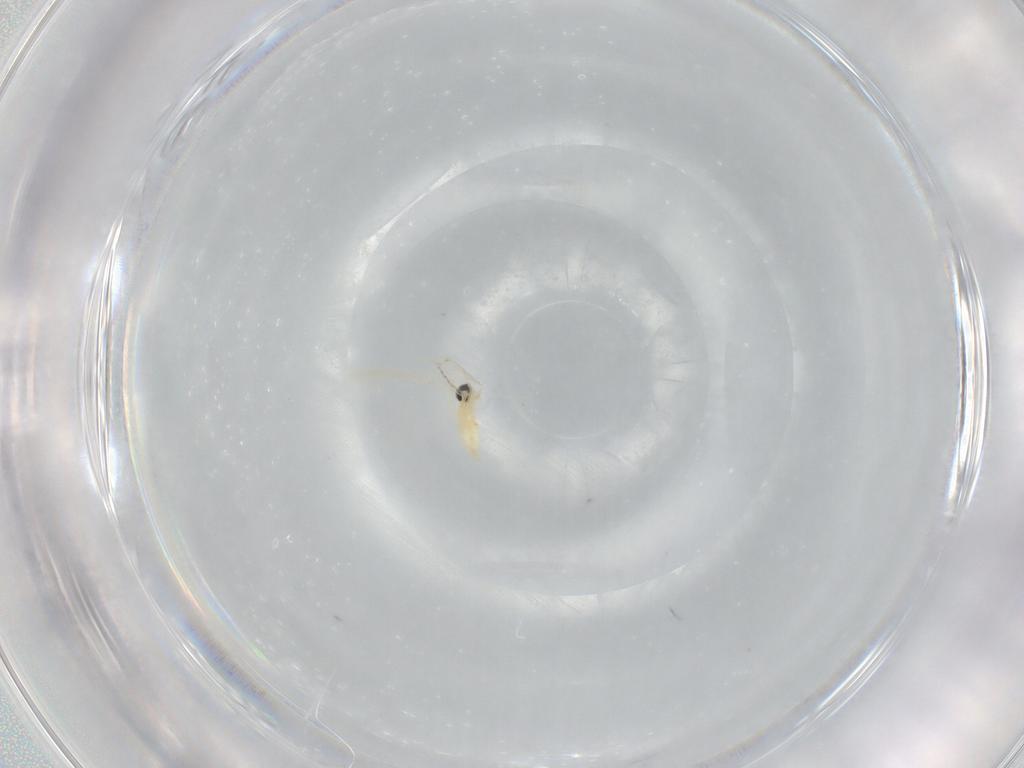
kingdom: Animalia
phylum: Arthropoda
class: Insecta
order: Diptera
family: Cecidomyiidae
